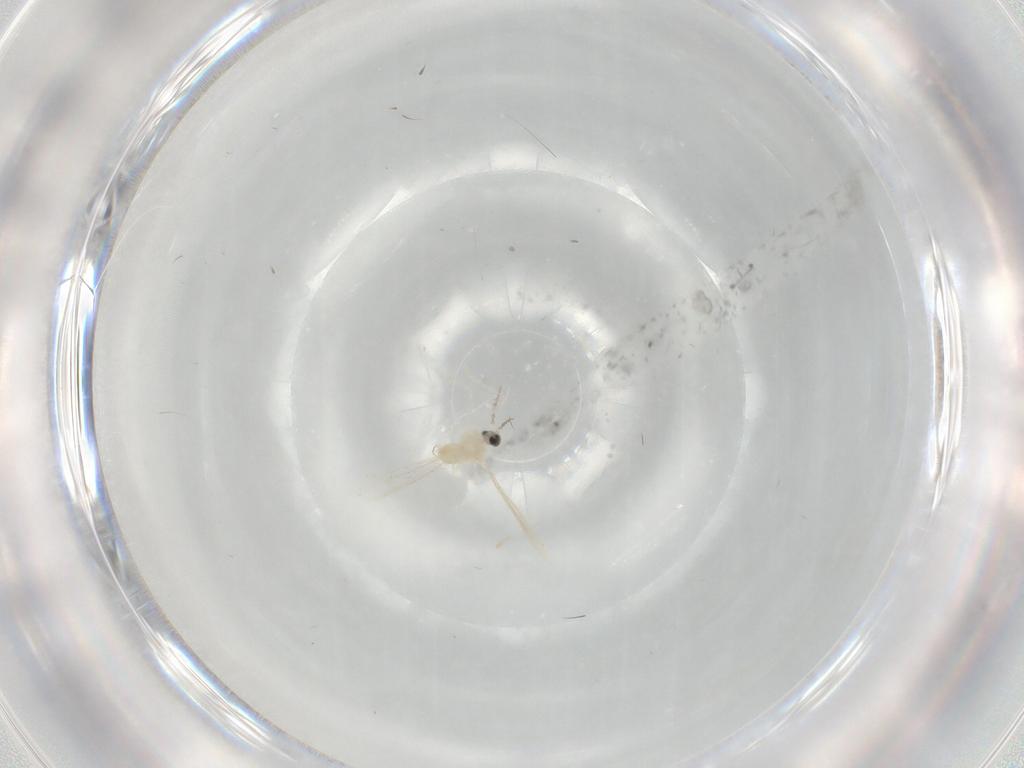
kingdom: Animalia
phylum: Arthropoda
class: Insecta
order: Diptera
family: Cecidomyiidae
